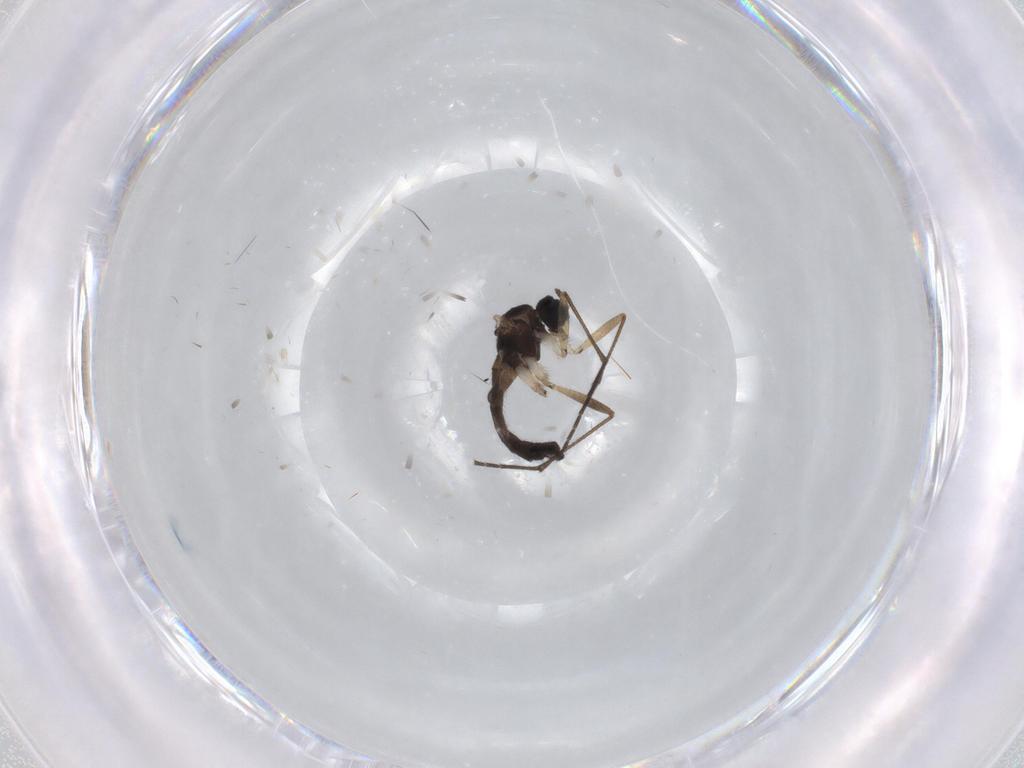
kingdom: Animalia
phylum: Arthropoda
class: Insecta
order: Diptera
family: Sciaridae
